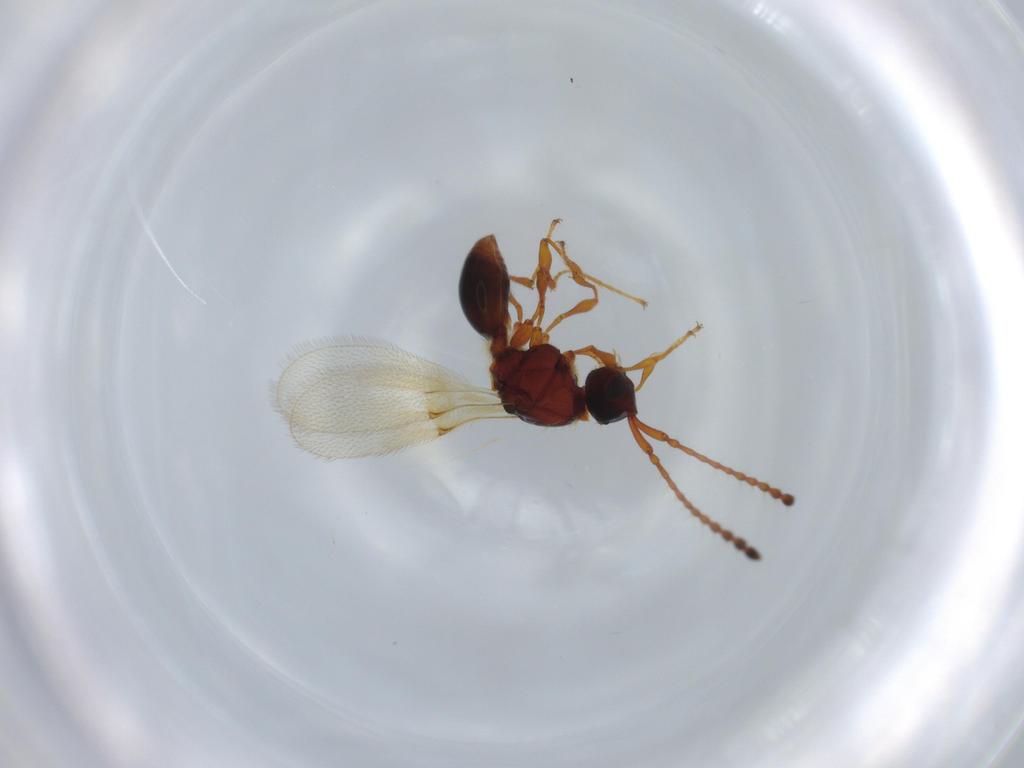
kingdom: Animalia
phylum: Arthropoda
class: Insecta
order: Hymenoptera
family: Diapriidae
